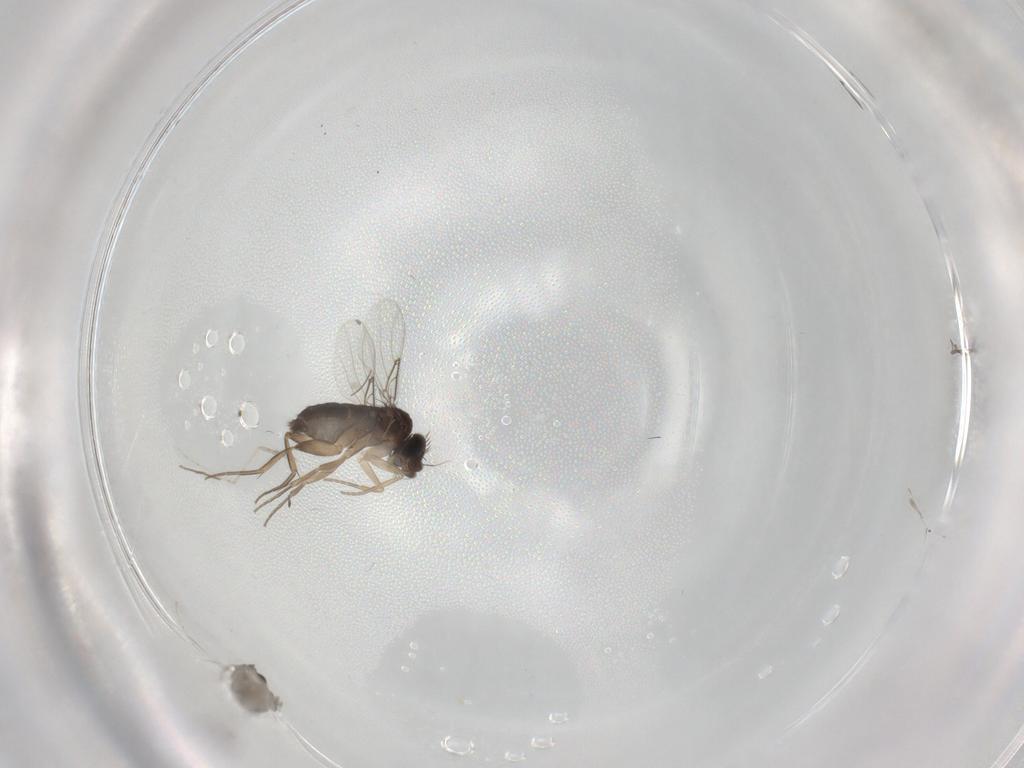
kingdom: Animalia
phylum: Arthropoda
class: Insecta
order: Diptera
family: Cecidomyiidae
